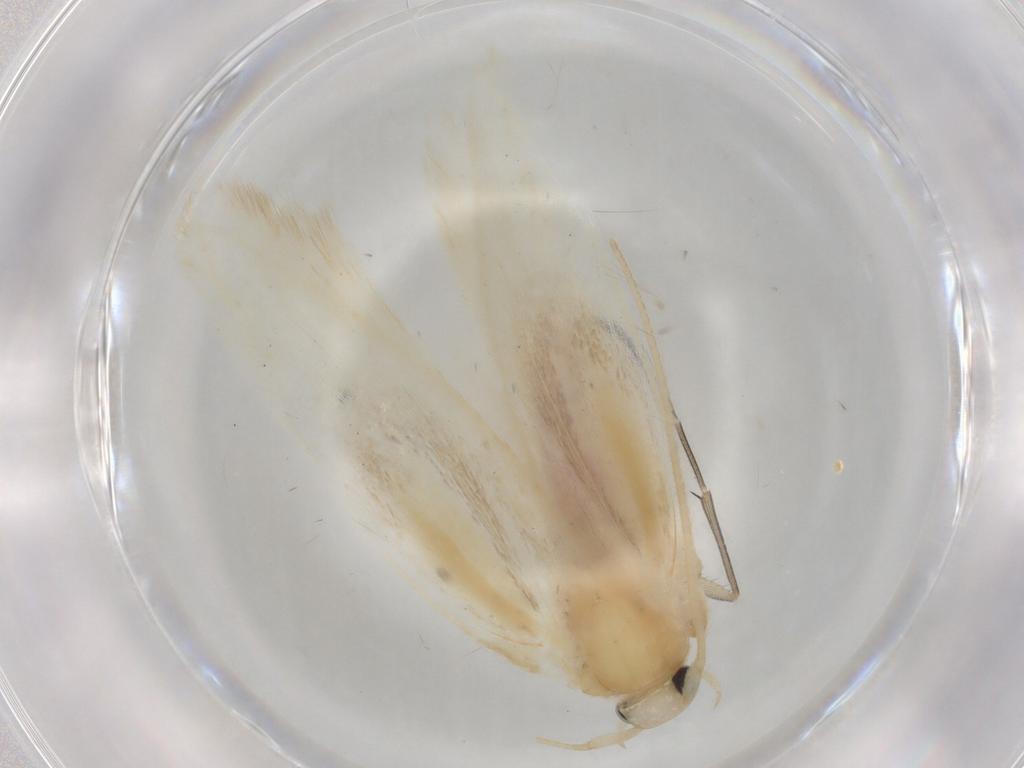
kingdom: Animalia
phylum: Arthropoda
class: Insecta
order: Lepidoptera
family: Geometridae
